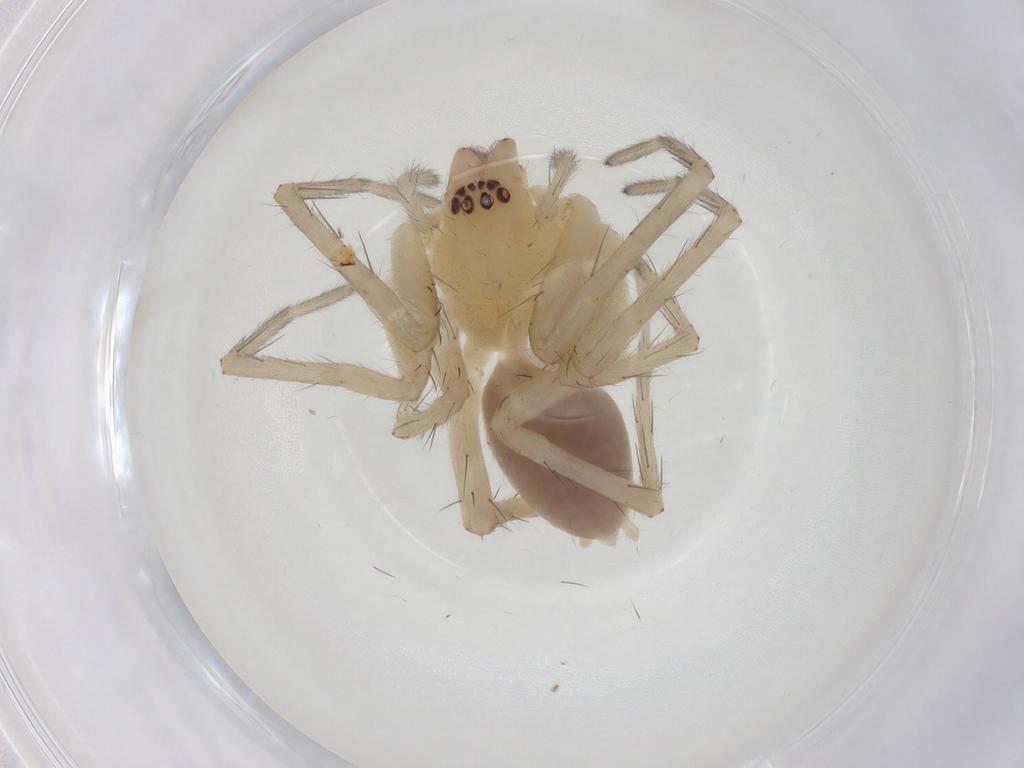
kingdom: Animalia
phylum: Arthropoda
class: Arachnida
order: Araneae
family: Anyphaenidae
